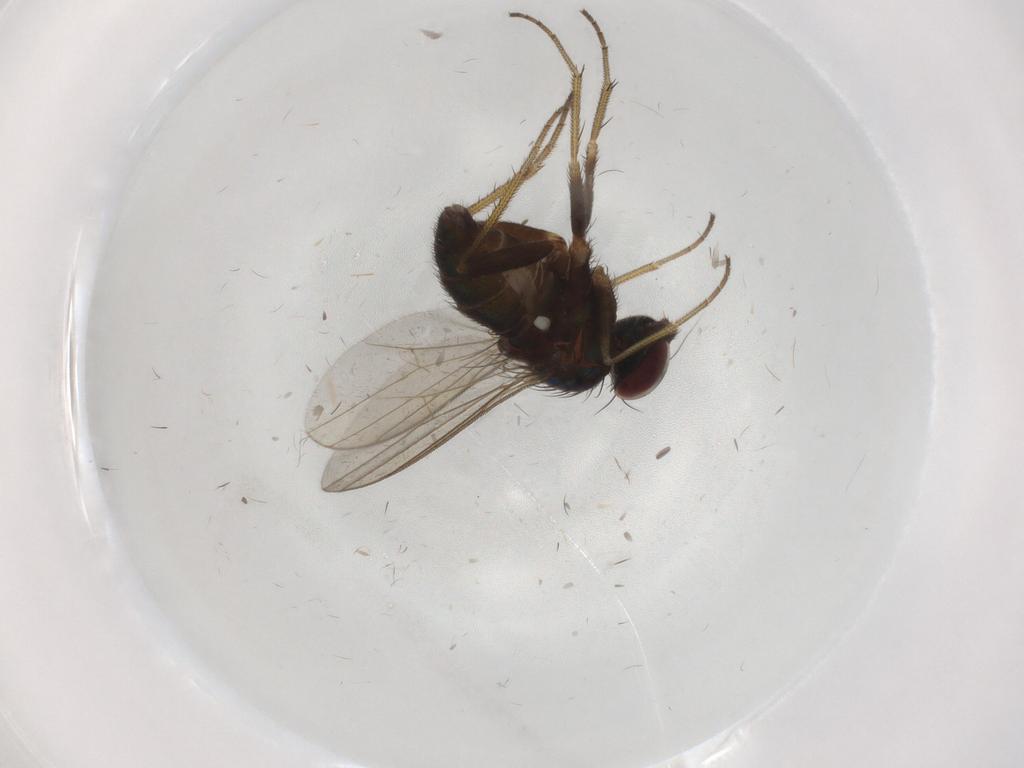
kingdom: Animalia
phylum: Arthropoda
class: Insecta
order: Diptera
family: Dolichopodidae
